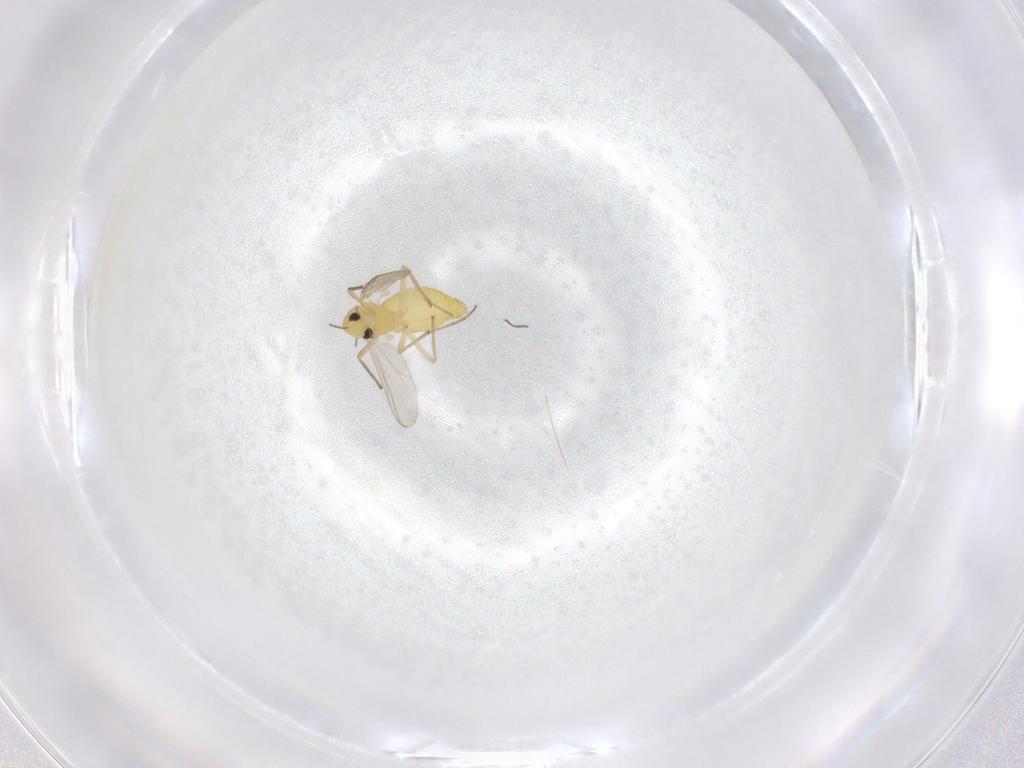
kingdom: Animalia
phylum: Arthropoda
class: Insecta
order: Diptera
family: Chironomidae
